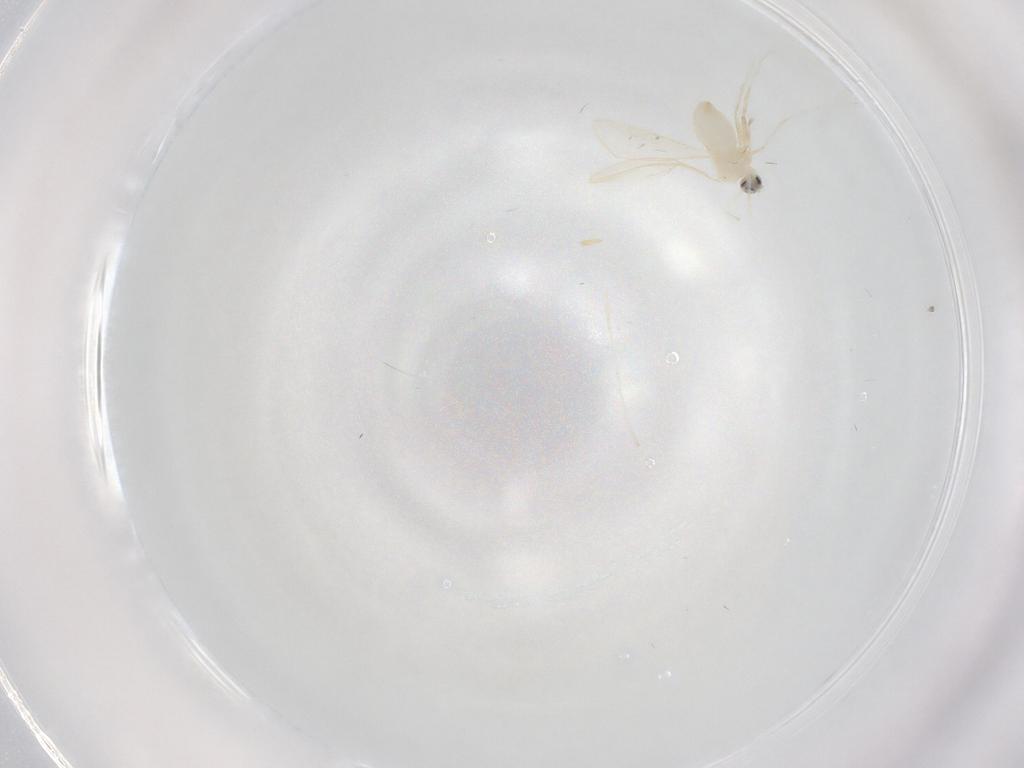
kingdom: Animalia
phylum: Arthropoda
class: Insecta
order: Diptera
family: Cecidomyiidae
